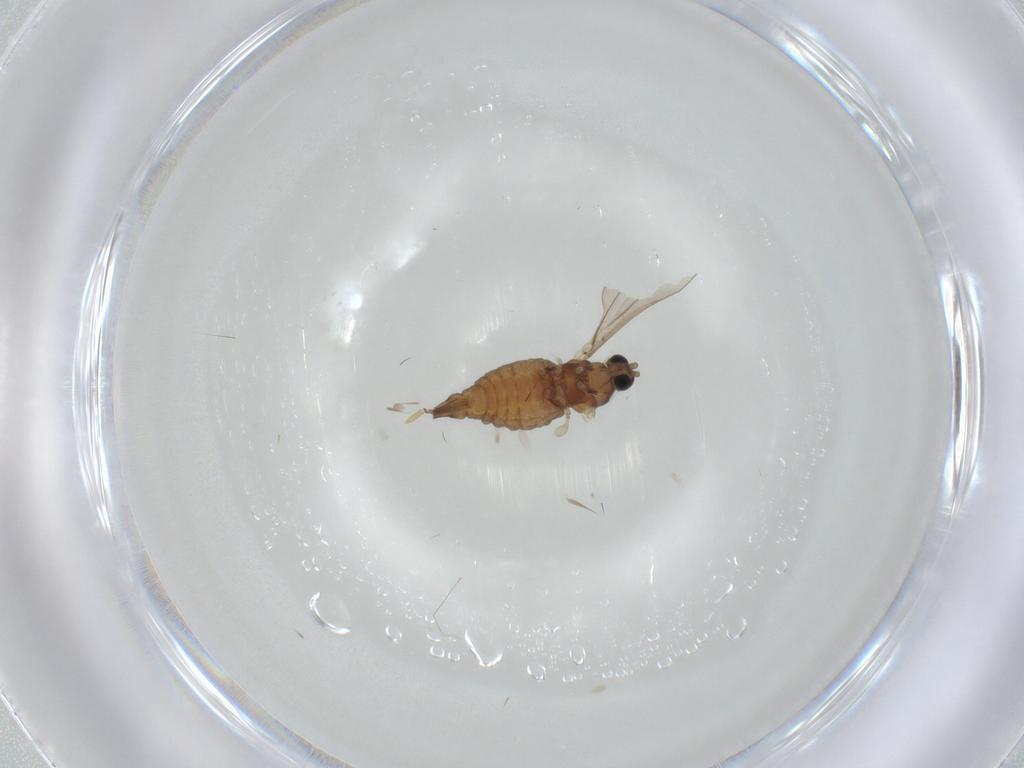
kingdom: Animalia
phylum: Arthropoda
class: Insecta
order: Diptera
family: Cecidomyiidae
